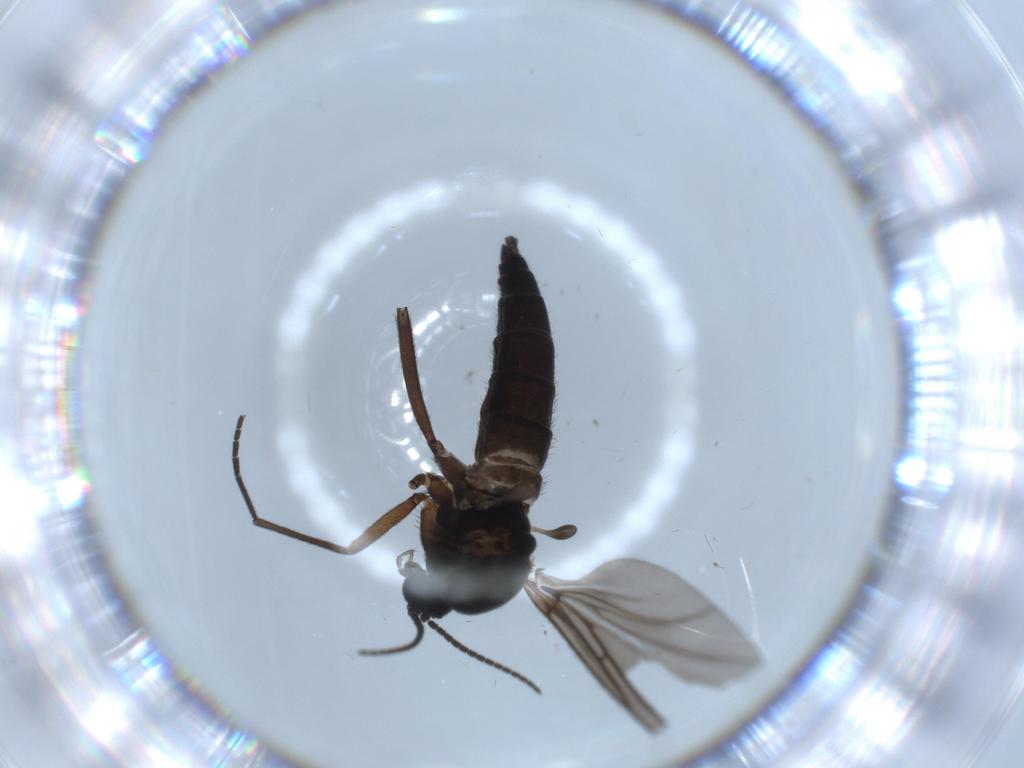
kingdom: Animalia
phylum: Arthropoda
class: Insecta
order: Diptera
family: Sciaridae
